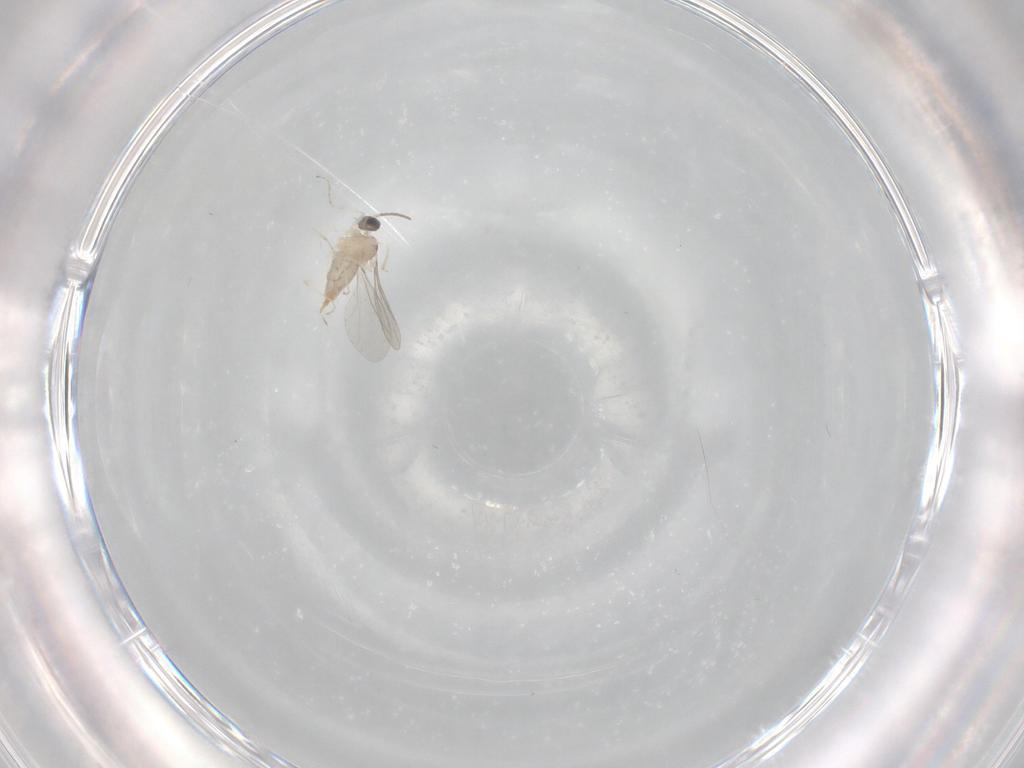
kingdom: Animalia
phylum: Arthropoda
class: Insecta
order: Diptera
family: Cecidomyiidae
